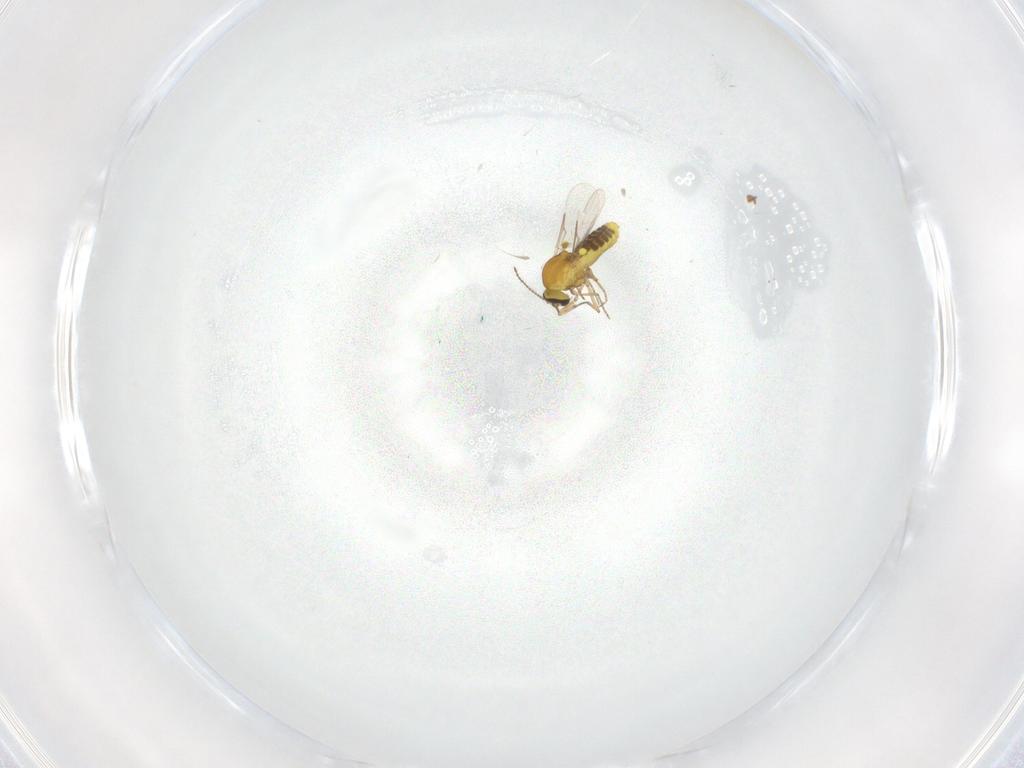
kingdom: Animalia
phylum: Arthropoda
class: Insecta
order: Diptera
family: Ceratopogonidae
